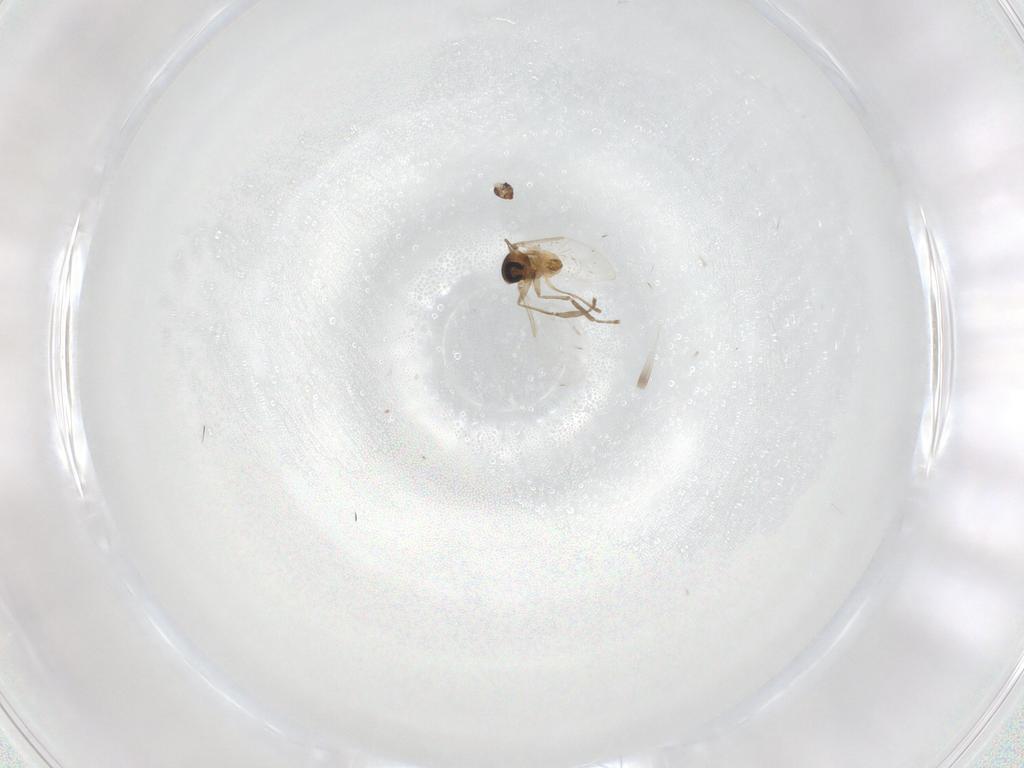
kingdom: Animalia
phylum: Arthropoda
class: Insecta
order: Diptera
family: Cecidomyiidae
